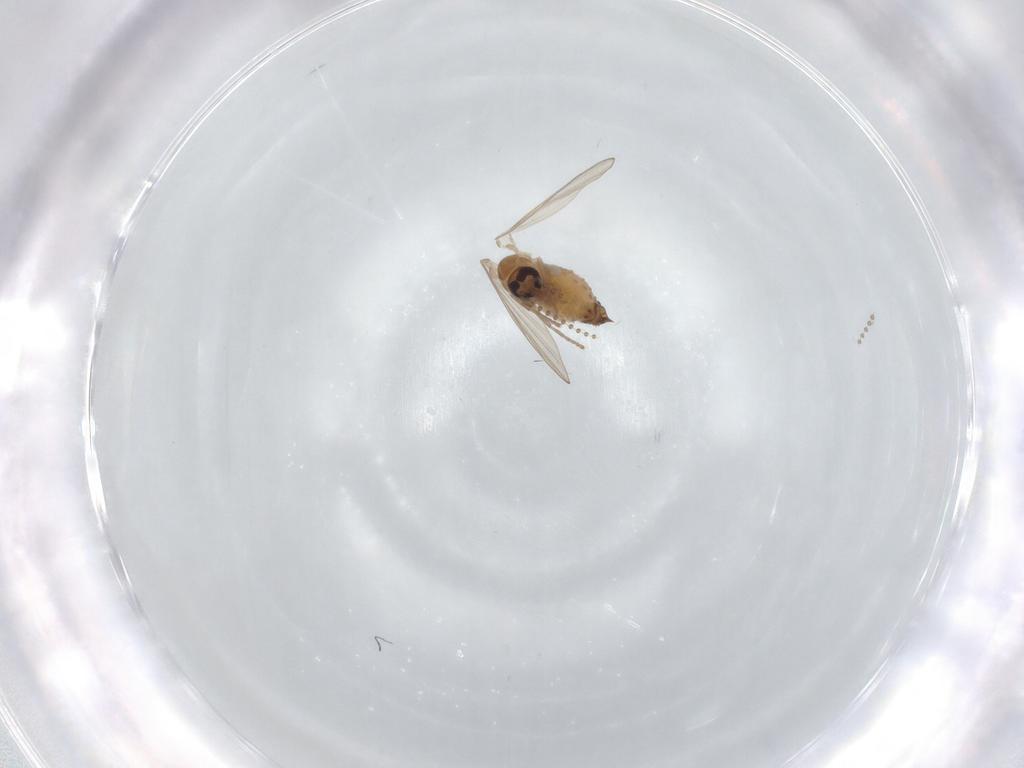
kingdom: Animalia
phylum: Arthropoda
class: Insecta
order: Diptera
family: Psychodidae
